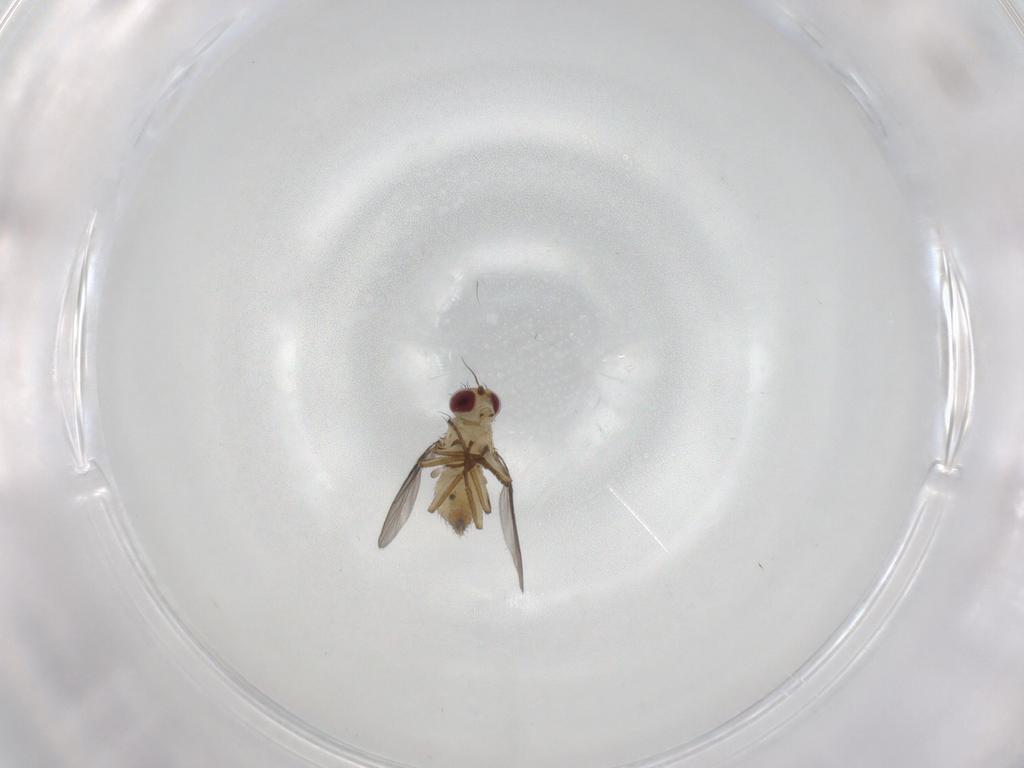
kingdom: Animalia
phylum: Arthropoda
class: Insecta
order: Diptera
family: Agromyzidae
